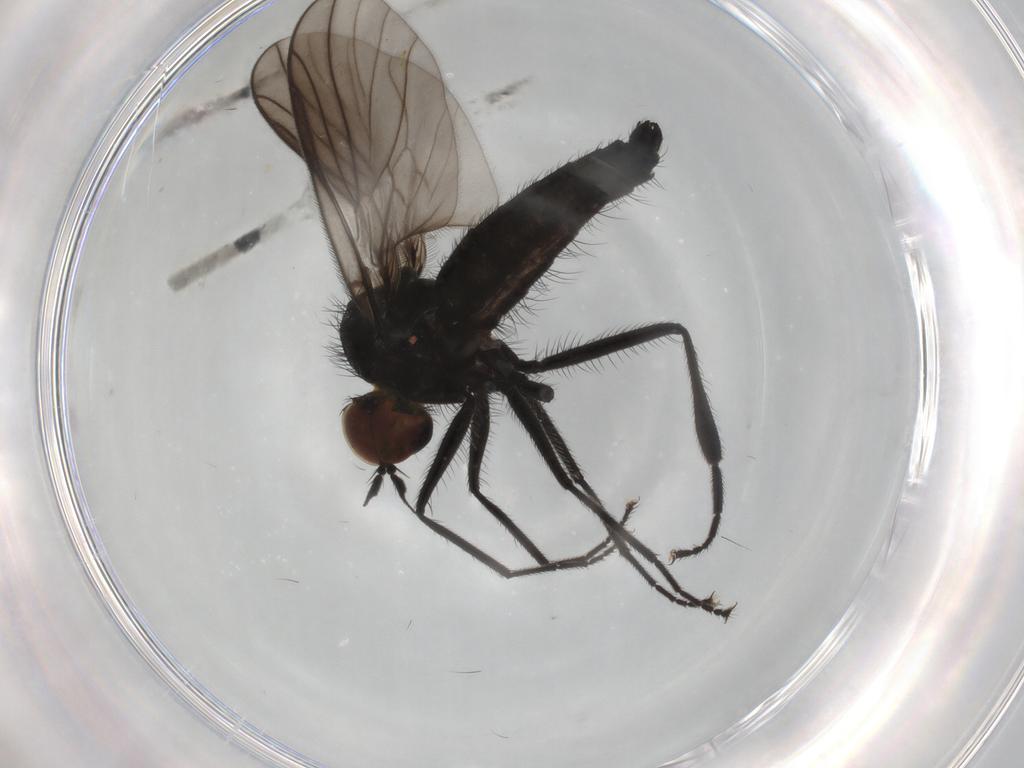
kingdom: Animalia
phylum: Arthropoda
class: Insecta
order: Diptera
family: Hybotidae
